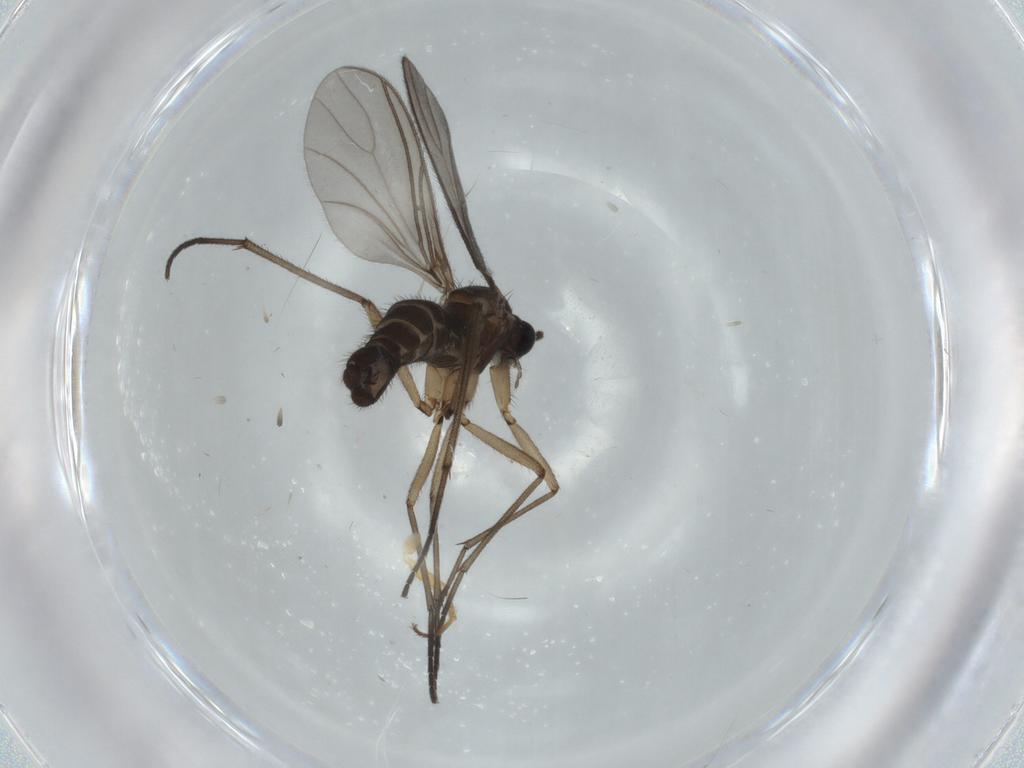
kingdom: Animalia
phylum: Arthropoda
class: Insecta
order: Diptera
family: Sciaridae
